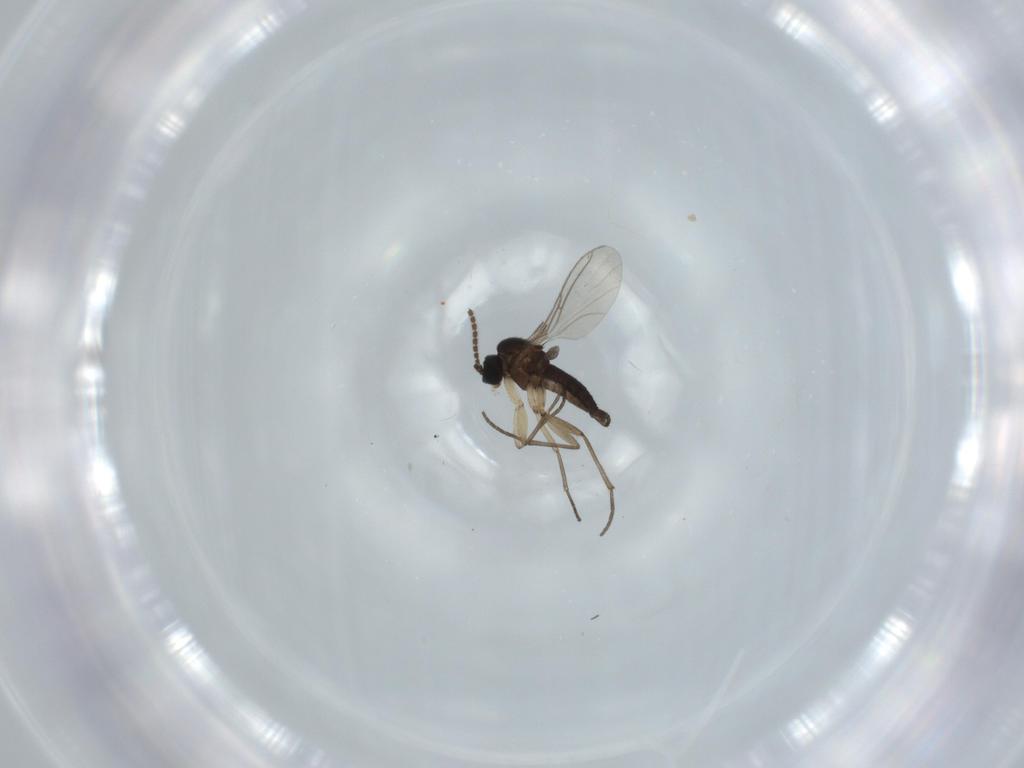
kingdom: Animalia
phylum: Arthropoda
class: Insecta
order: Diptera
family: Sciaridae
